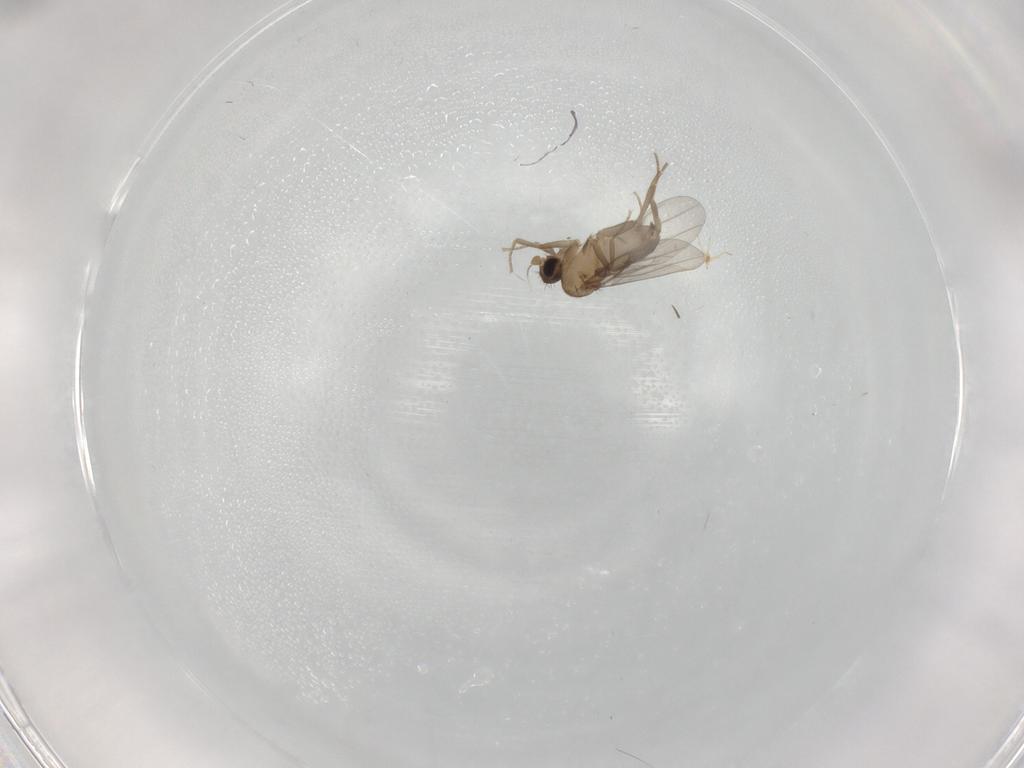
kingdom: Animalia
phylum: Arthropoda
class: Insecta
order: Diptera
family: Cecidomyiidae
